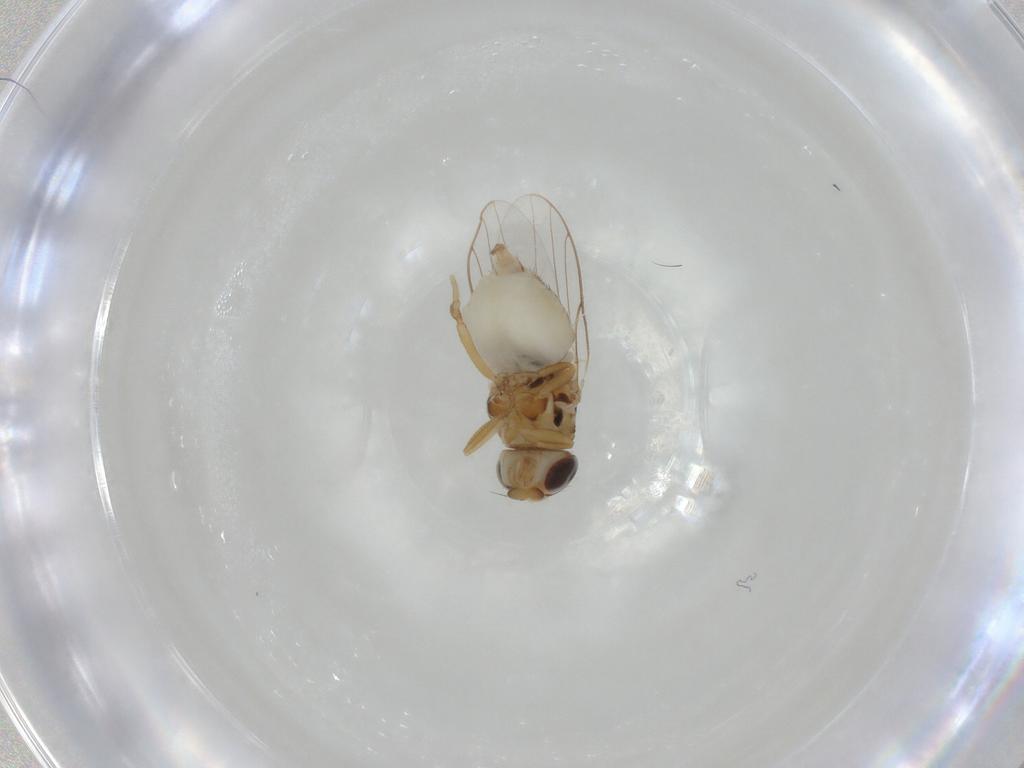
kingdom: Animalia
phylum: Arthropoda
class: Insecta
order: Diptera
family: Chloropidae
